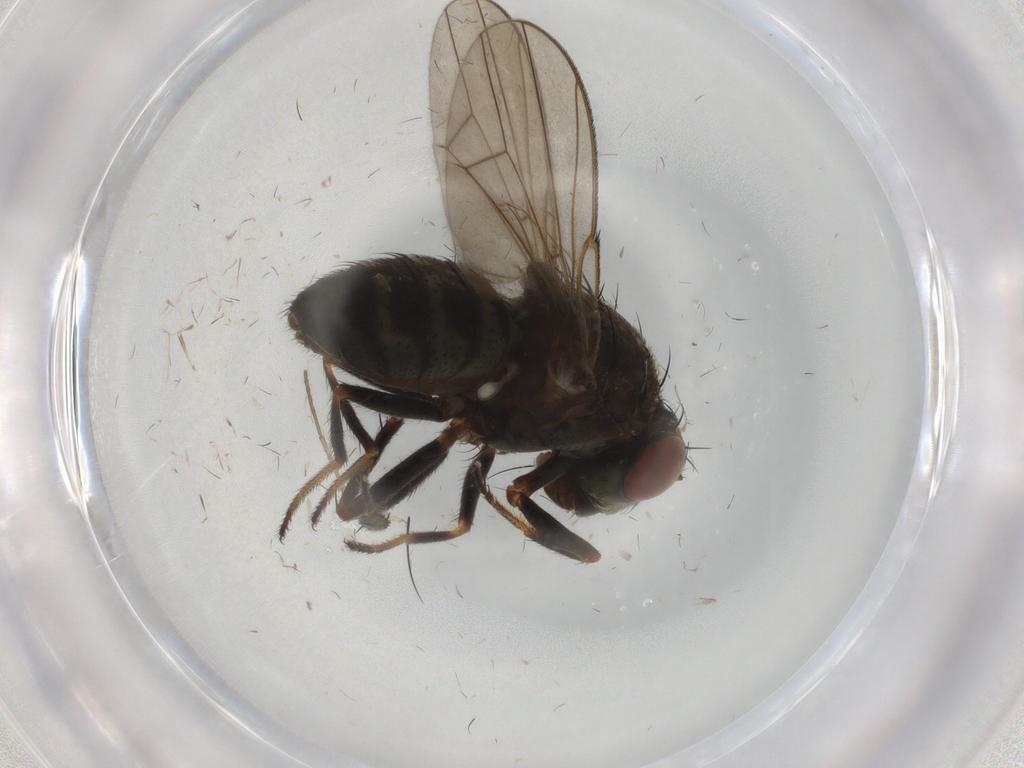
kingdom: Animalia
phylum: Arthropoda
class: Insecta
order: Diptera
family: Ephydridae
